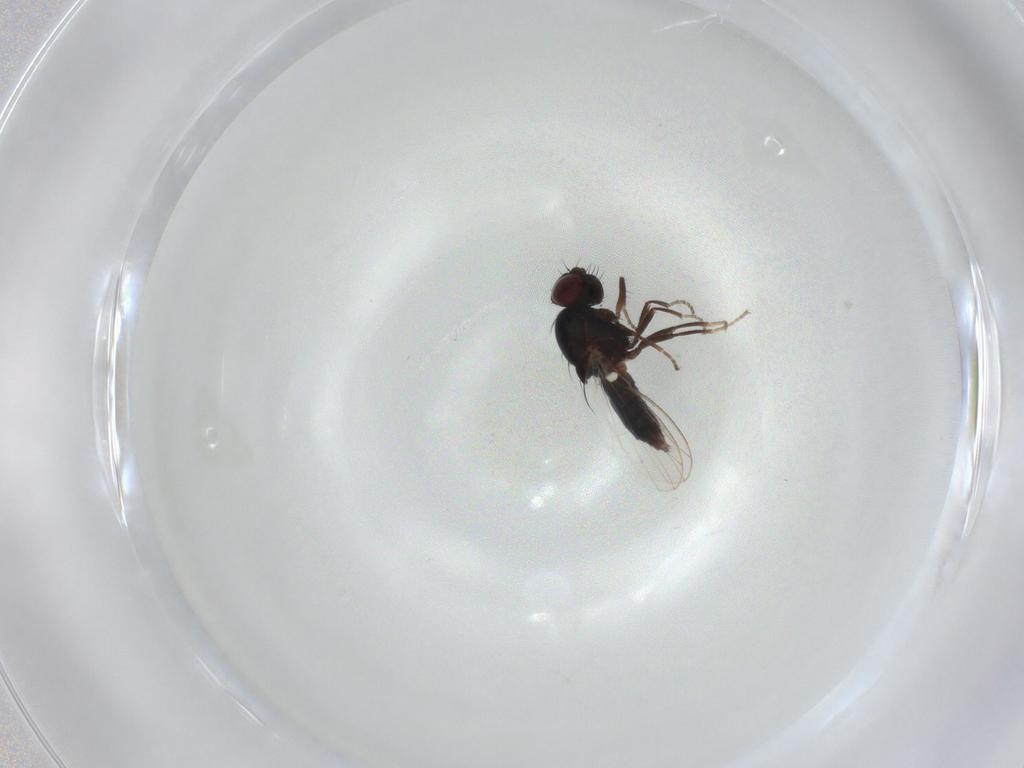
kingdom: Animalia
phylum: Arthropoda
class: Insecta
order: Diptera
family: Carnidae
